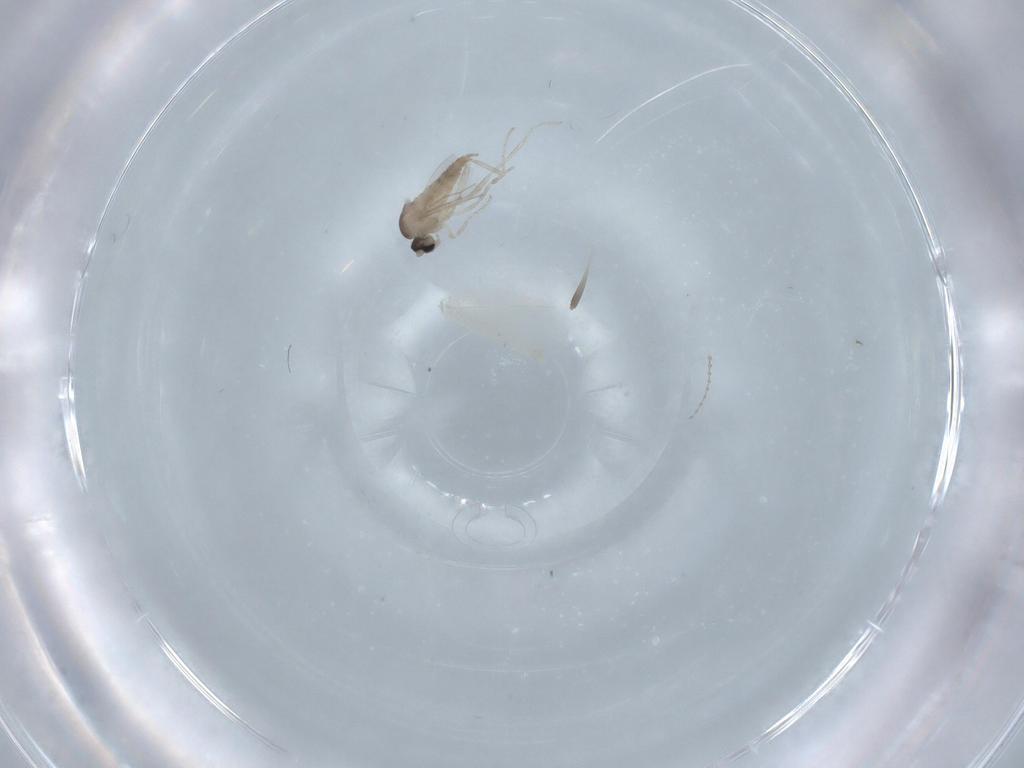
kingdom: Animalia
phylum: Arthropoda
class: Insecta
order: Diptera
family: Cecidomyiidae
